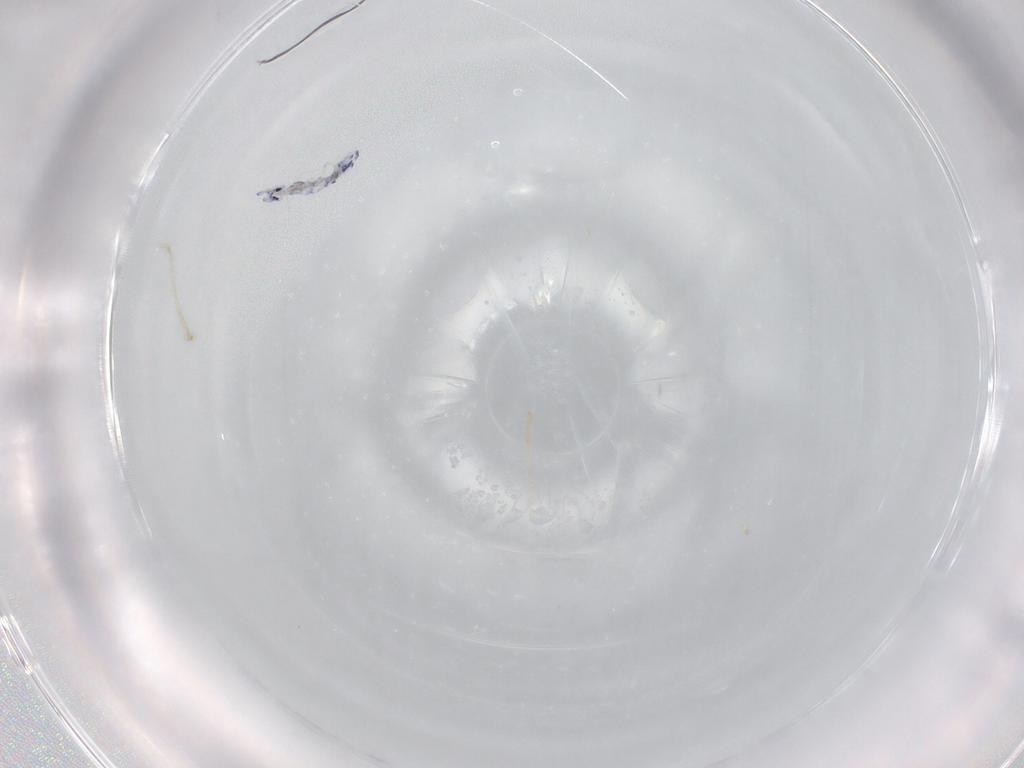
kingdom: Animalia
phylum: Arthropoda
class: Collembola
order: Entomobryomorpha
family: Entomobryidae
